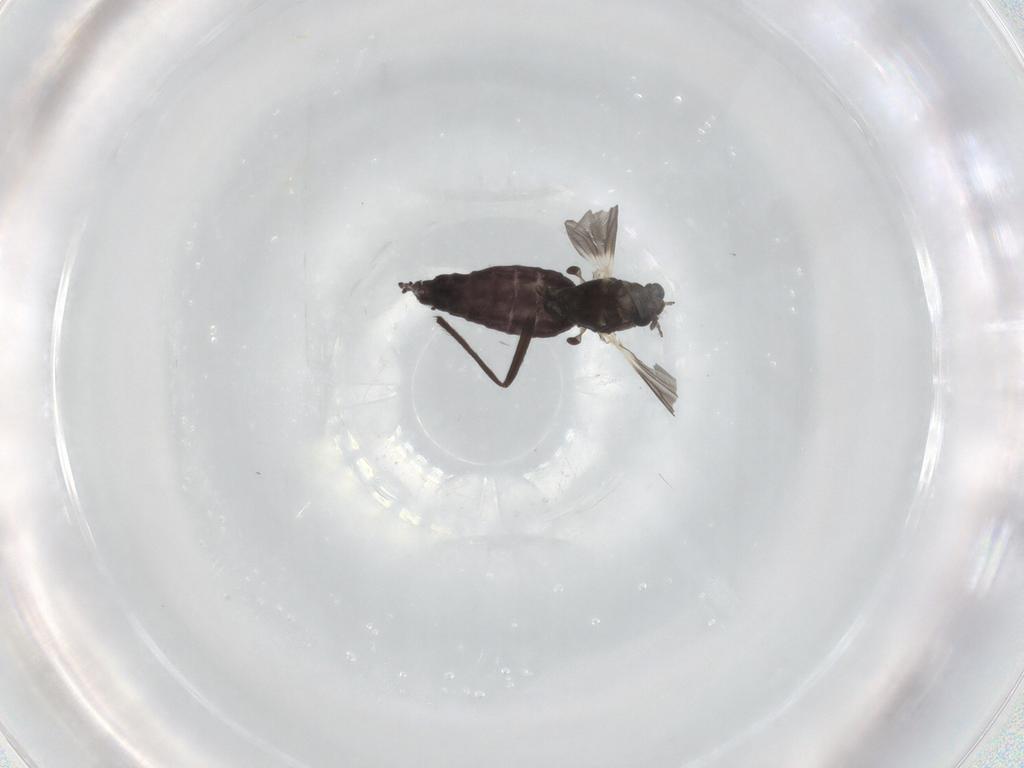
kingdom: Animalia
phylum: Arthropoda
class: Insecta
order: Diptera
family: Chironomidae
